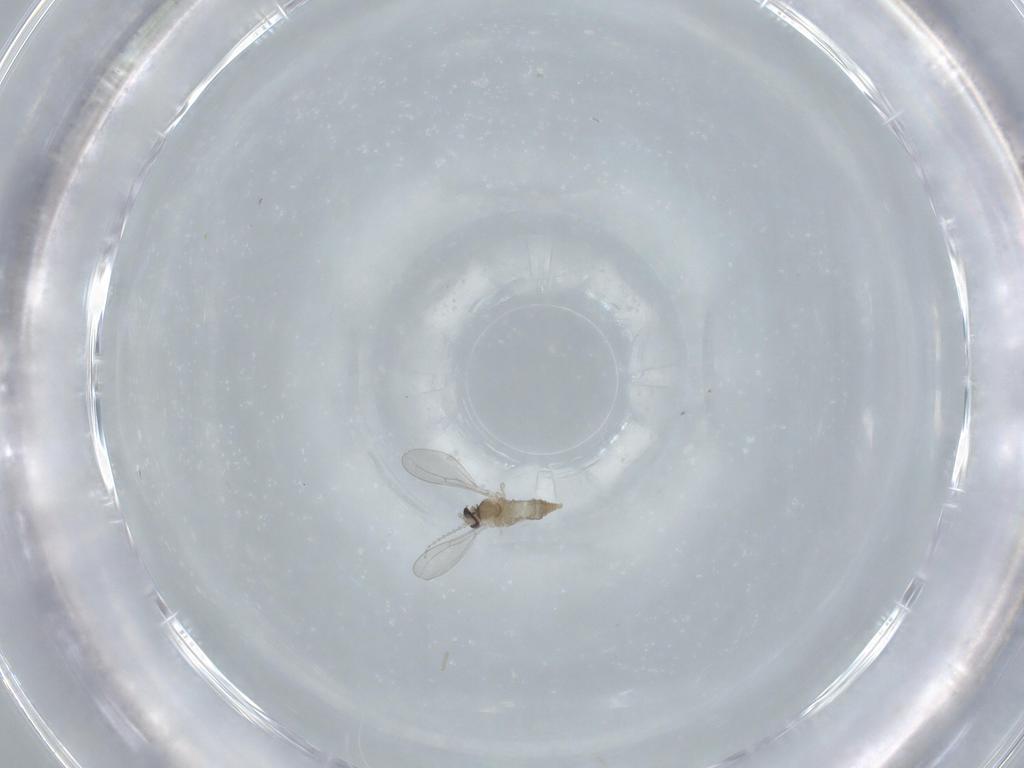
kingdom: Animalia
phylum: Arthropoda
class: Insecta
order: Diptera
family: Cecidomyiidae
